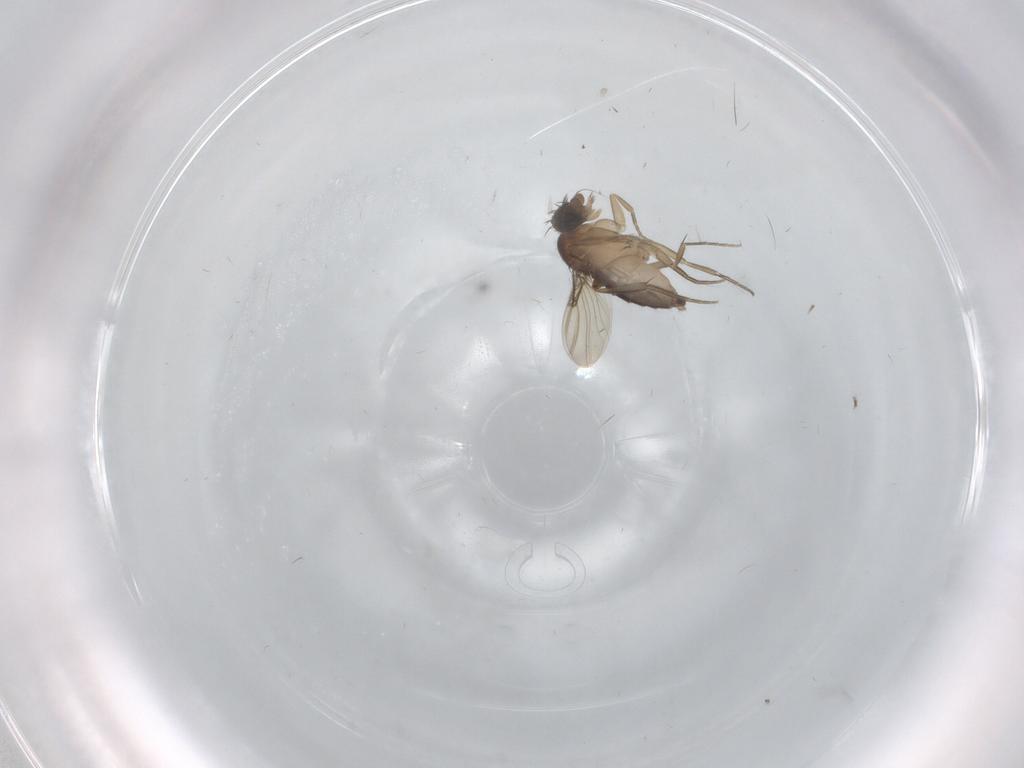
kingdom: Animalia
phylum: Arthropoda
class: Insecta
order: Diptera
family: Phoridae
